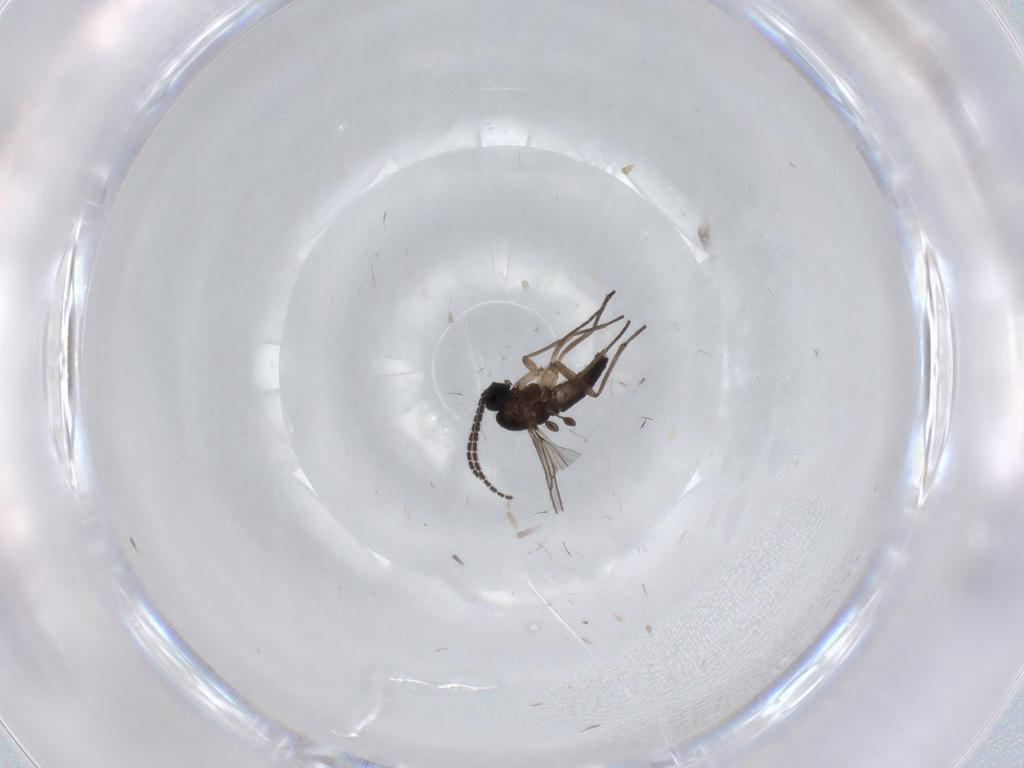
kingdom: Animalia
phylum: Arthropoda
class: Insecta
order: Diptera
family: Sciaridae
